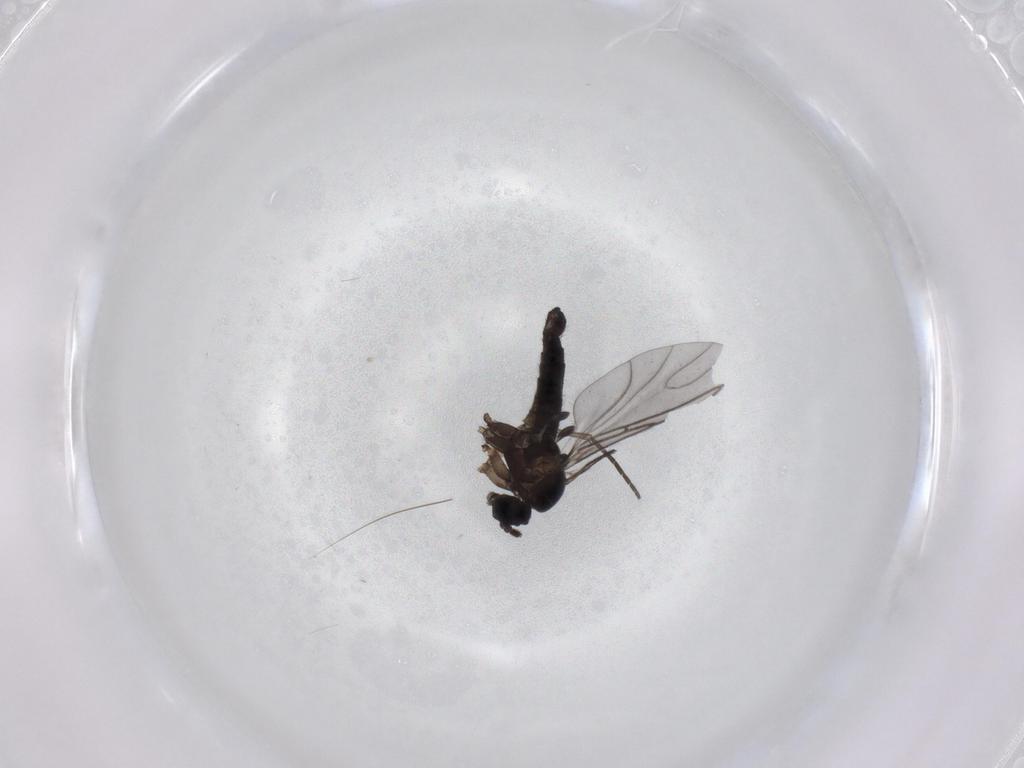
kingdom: Animalia
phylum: Arthropoda
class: Insecta
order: Diptera
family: Sciaridae
